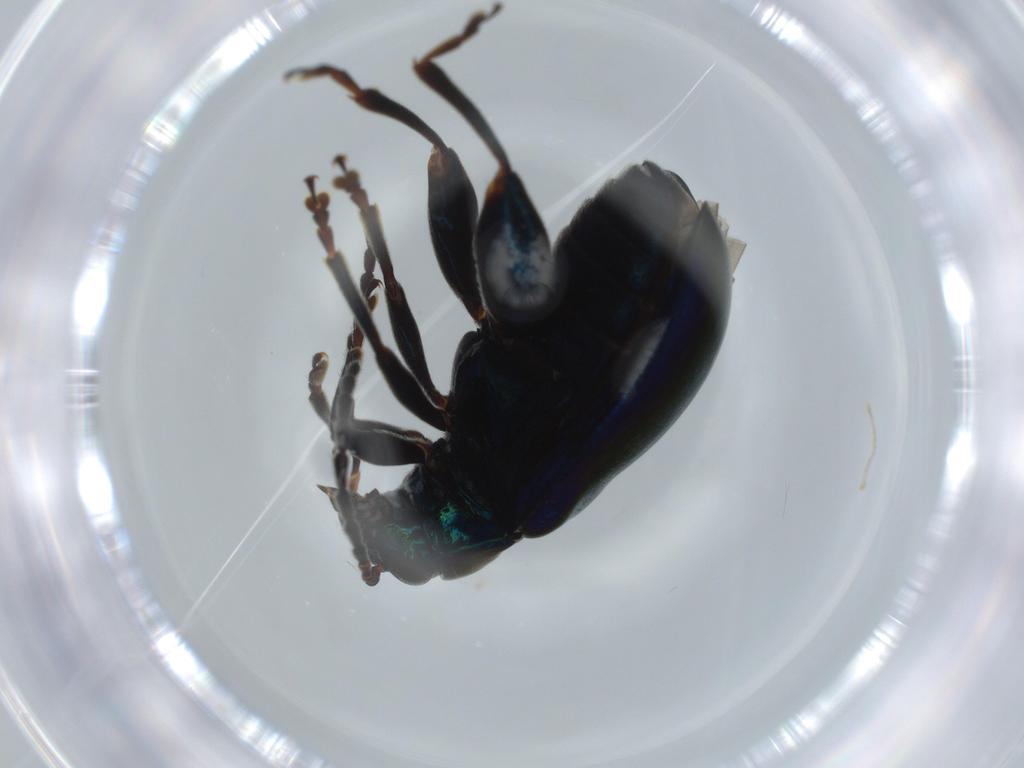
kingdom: Animalia
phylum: Arthropoda
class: Insecta
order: Coleoptera
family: Chrysomelidae
